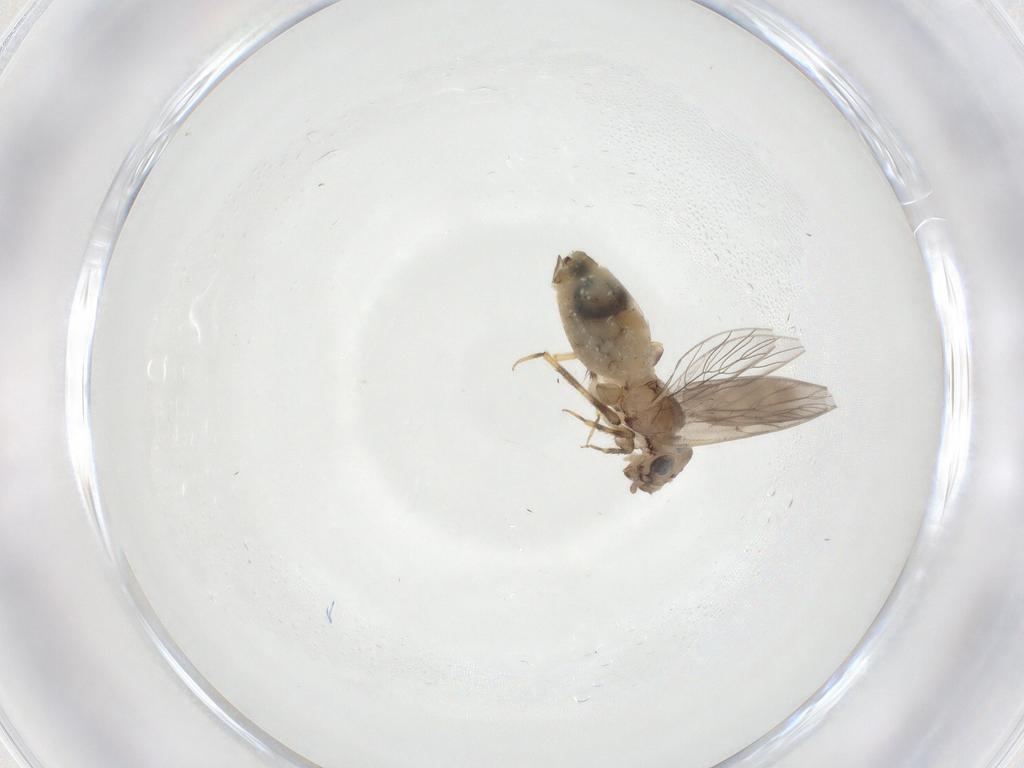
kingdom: Animalia
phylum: Arthropoda
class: Insecta
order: Psocodea
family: Lepidopsocidae
